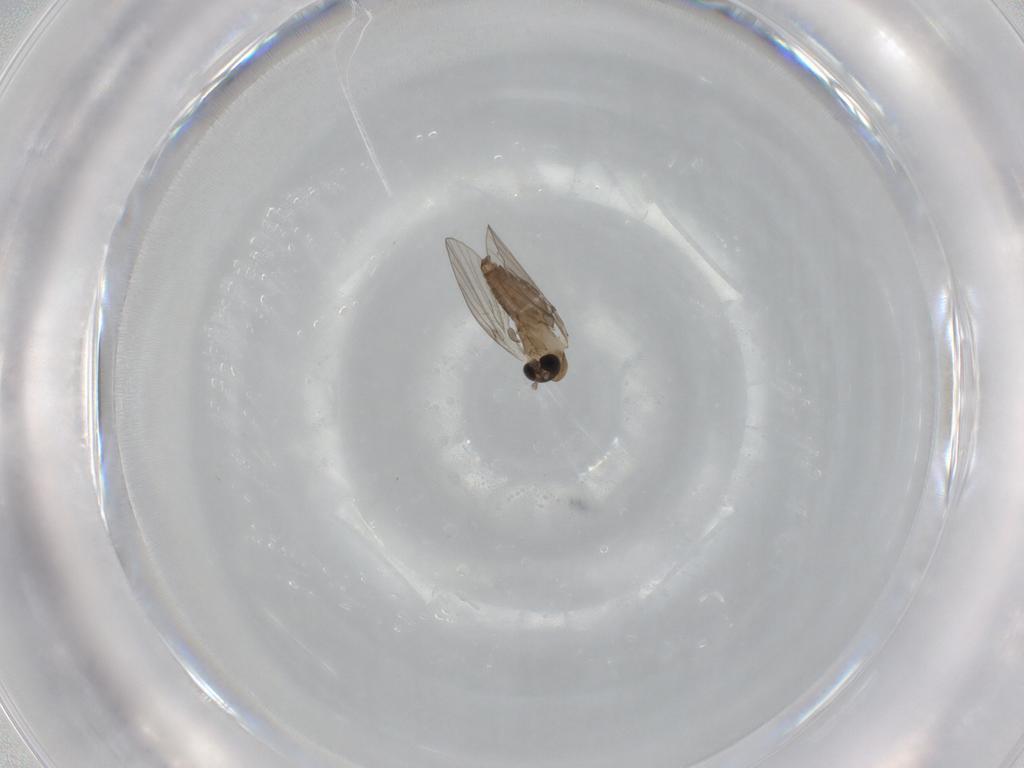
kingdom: Animalia
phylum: Arthropoda
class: Insecta
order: Diptera
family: Psychodidae
